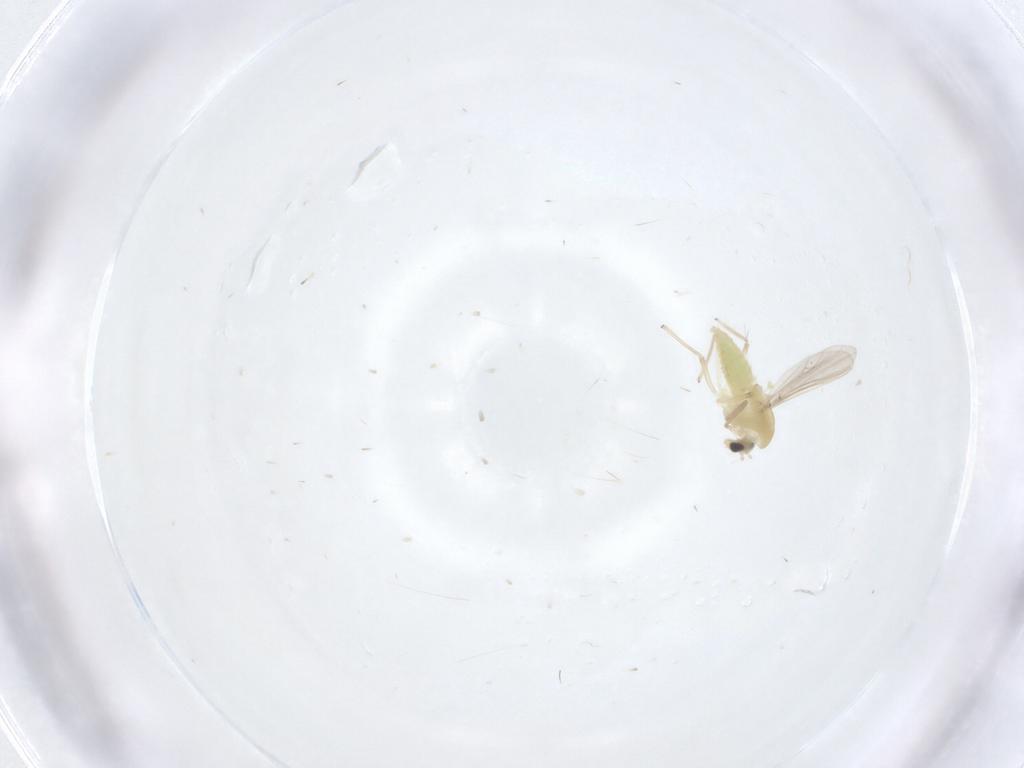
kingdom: Animalia
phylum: Arthropoda
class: Insecta
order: Diptera
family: Chironomidae
